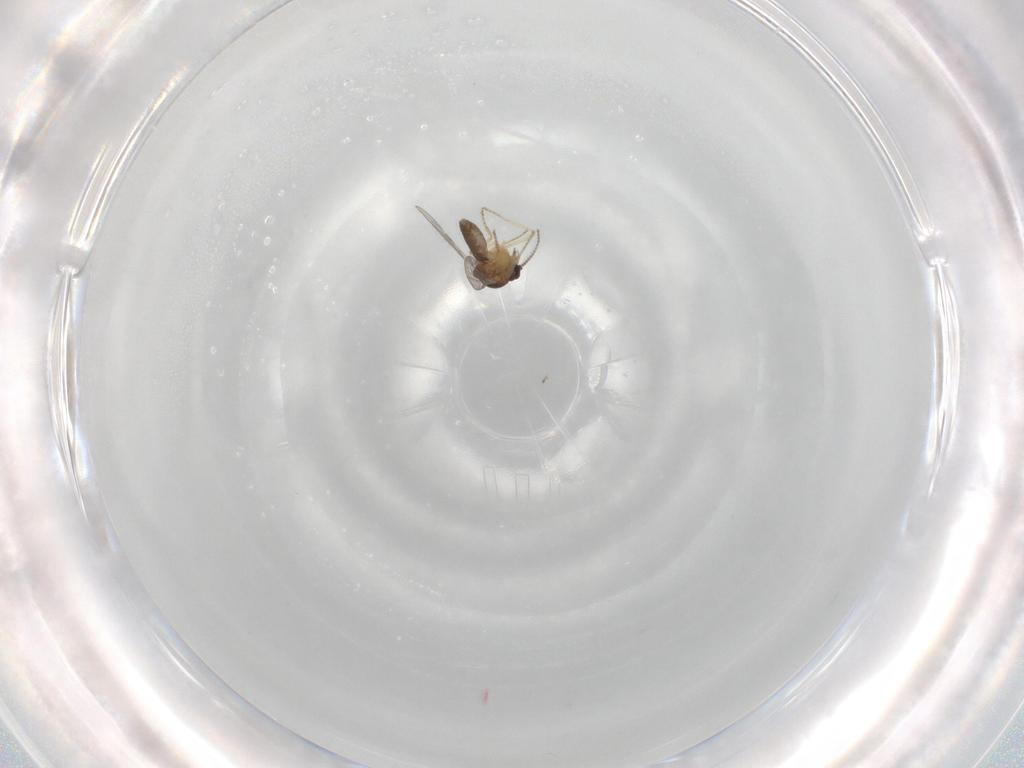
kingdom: Animalia
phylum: Arthropoda
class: Insecta
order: Diptera
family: Ceratopogonidae
